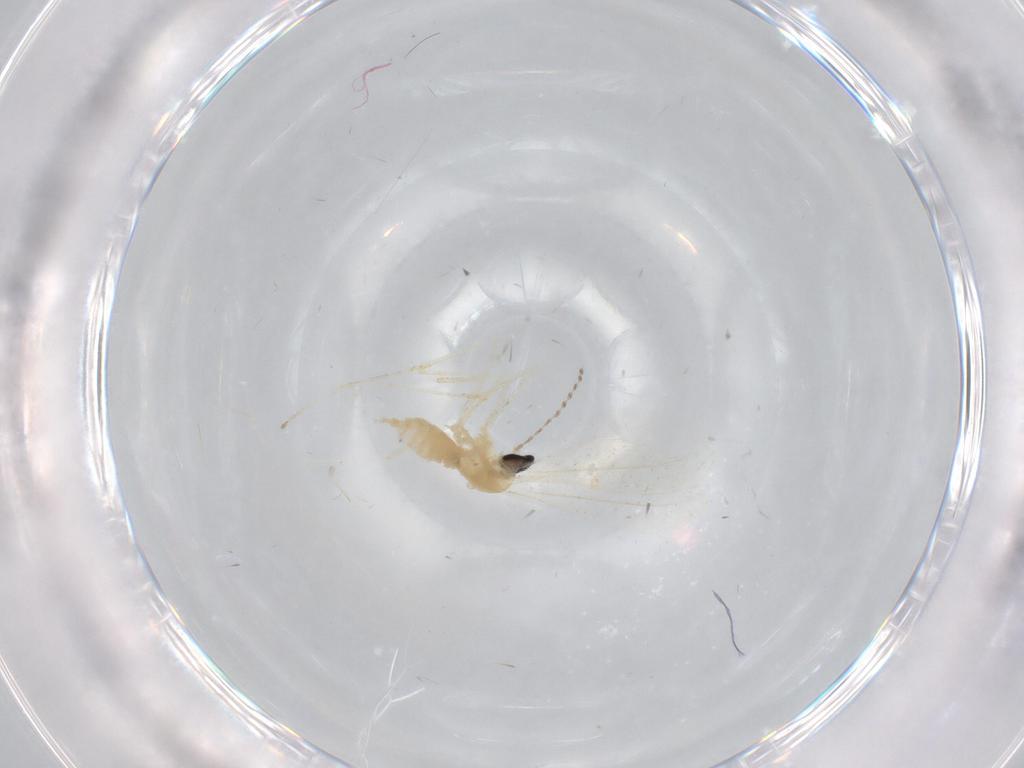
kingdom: Animalia
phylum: Arthropoda
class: Insecta
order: Diptera
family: Cecidomyiidae
